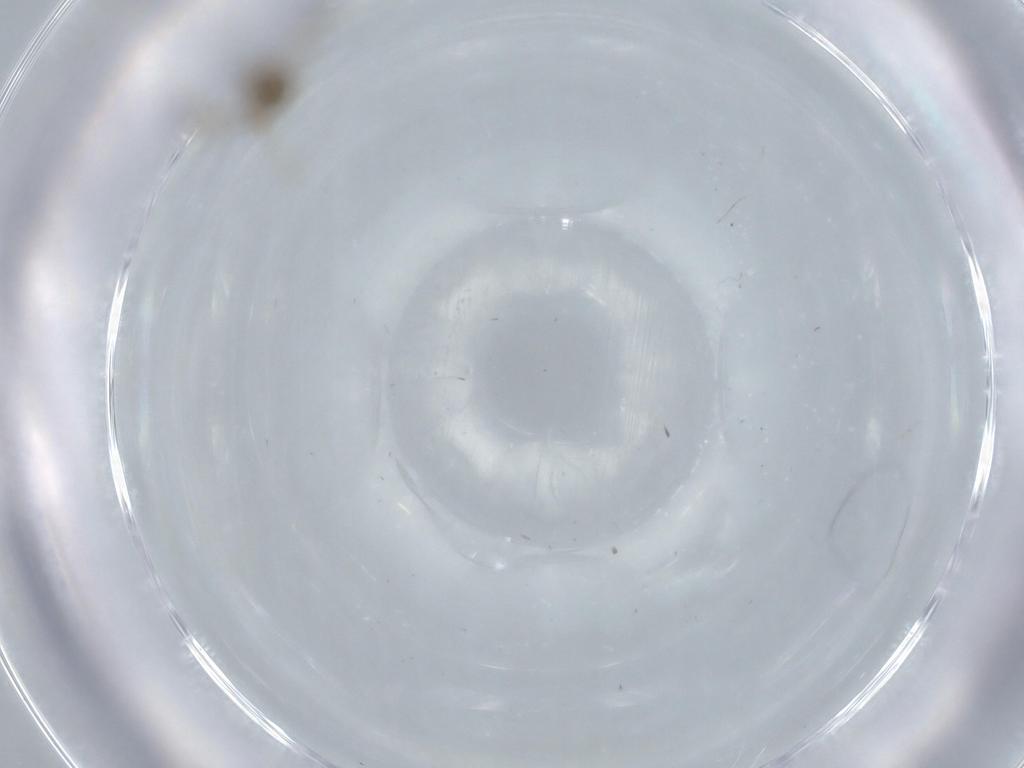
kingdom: Animalia
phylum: Arthropoda
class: Insecta
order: Diptera
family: Cecidomyiidae
